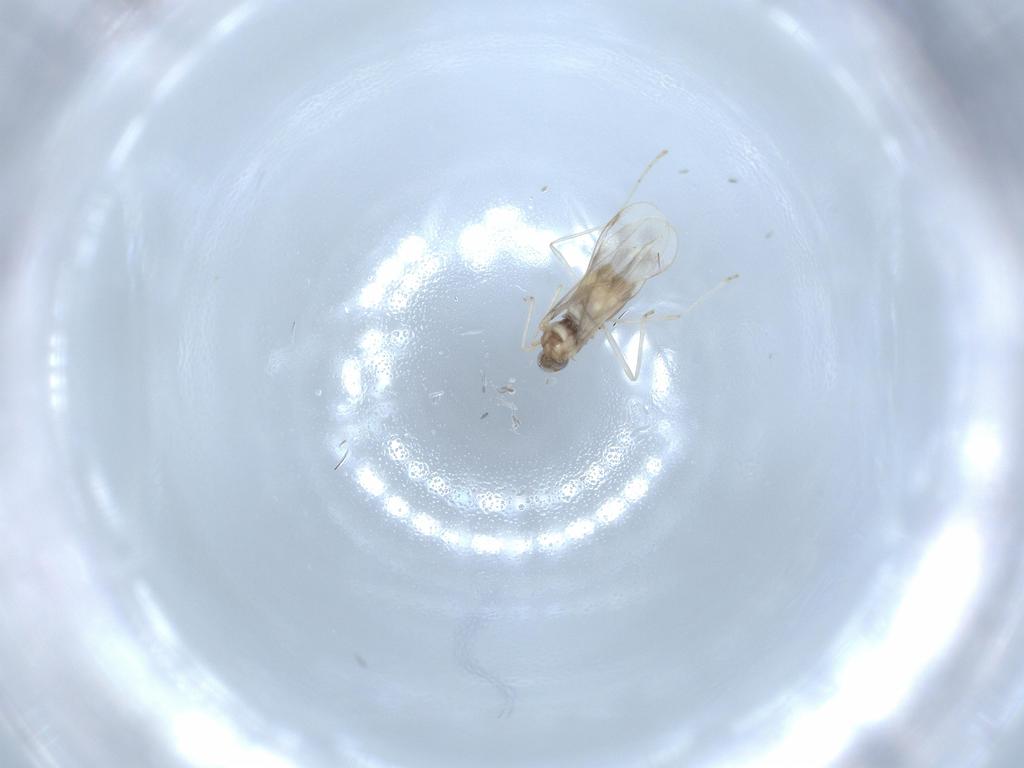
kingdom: Animalia
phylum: Arthropoda
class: Insecta
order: Diptera
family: Cecidomyiidae
